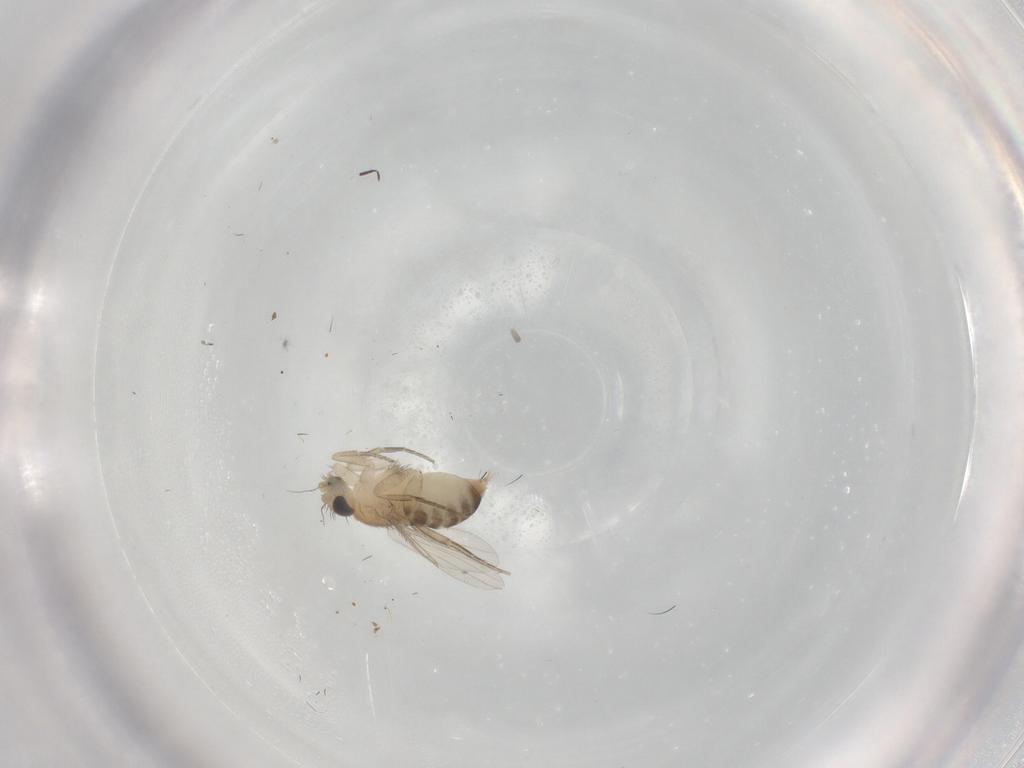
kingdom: Animalia
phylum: Arthropoda
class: Insecta
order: Diptera
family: Phoridae
